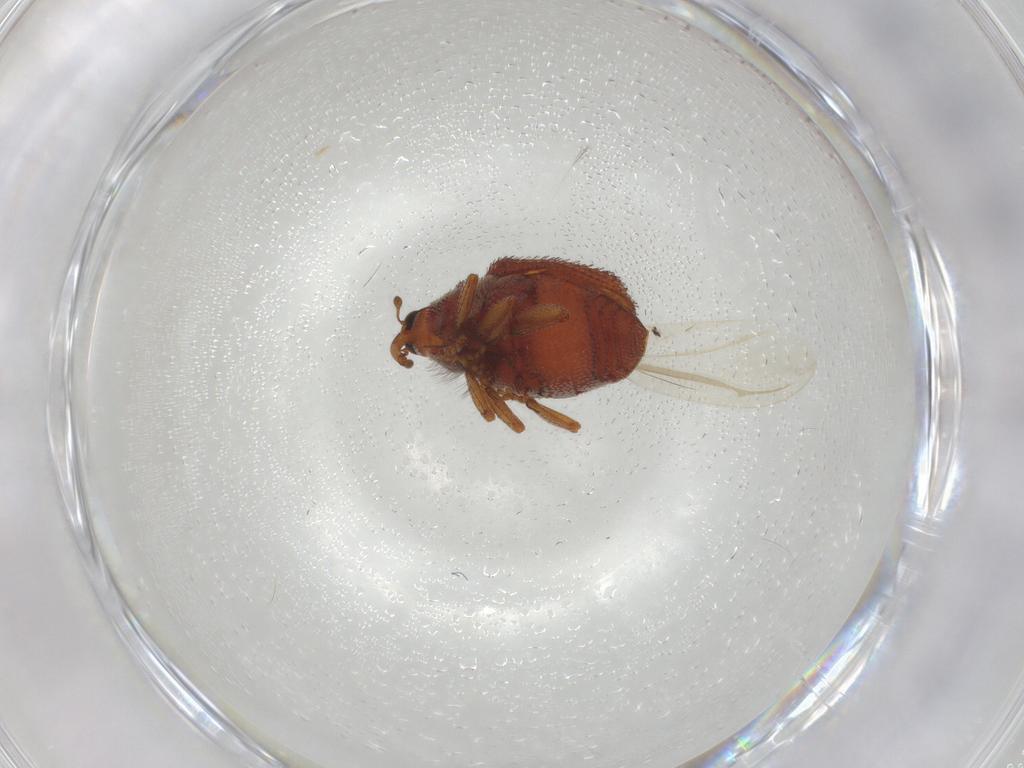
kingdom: Animalia
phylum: Arthropoda
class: Insecta
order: Coleoptera
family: Curculionidae
